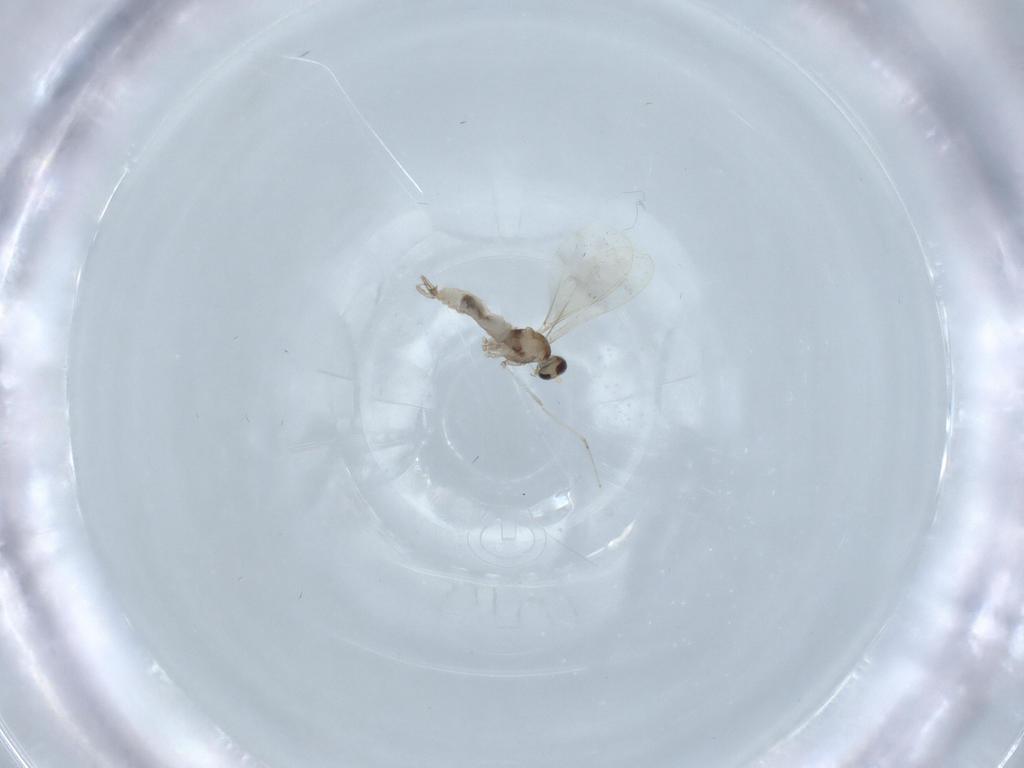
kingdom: Animalia
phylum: Arthropoda
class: Insecta
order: Diptera
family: Cecidomyiidae
